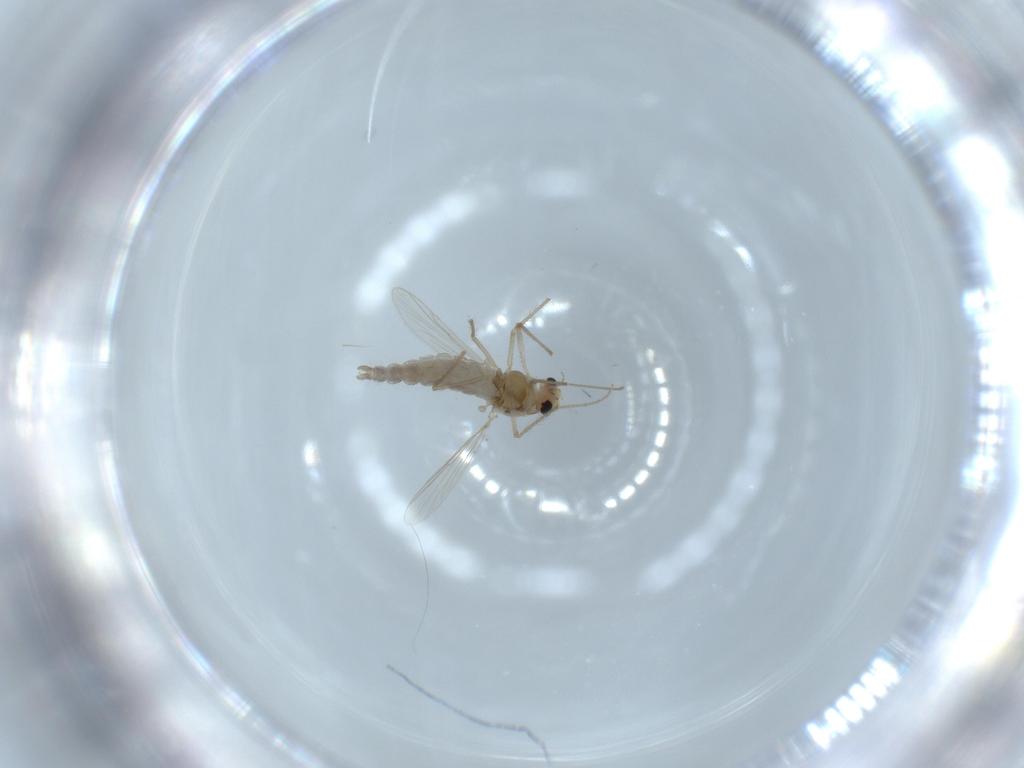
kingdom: Animalia
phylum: Arthropoda
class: Insecta
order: Diptera
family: Chironomidae
